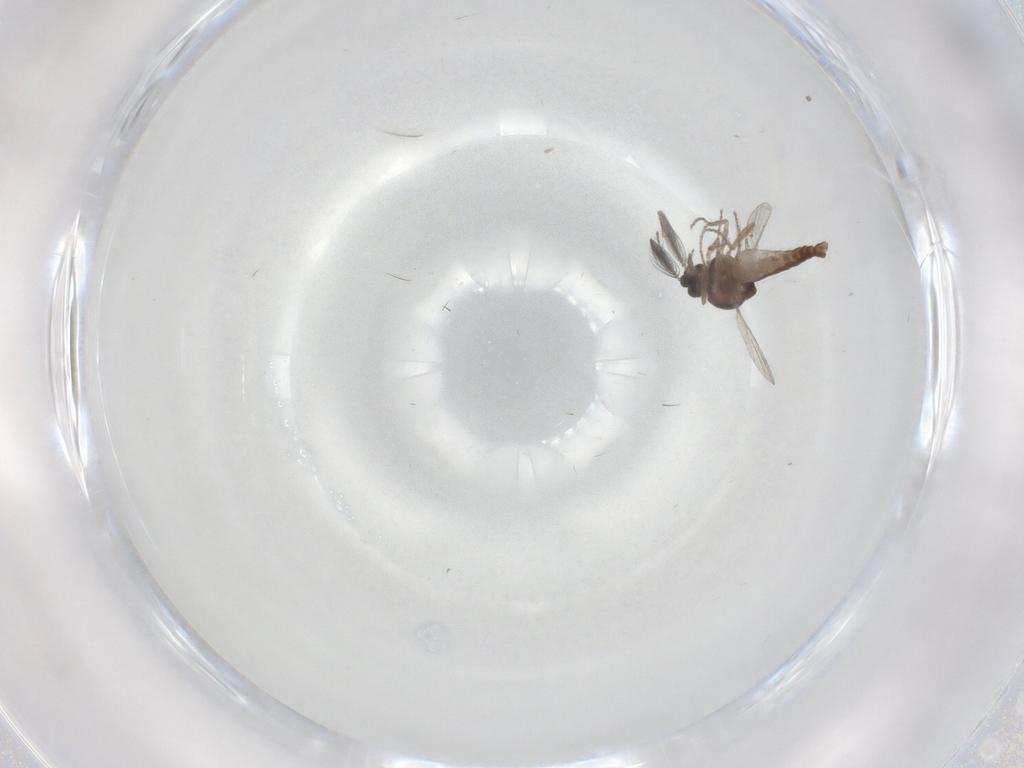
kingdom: Animalia
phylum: Arthropoda
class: Insecta
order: Diptera
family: Ceratopogonidae
